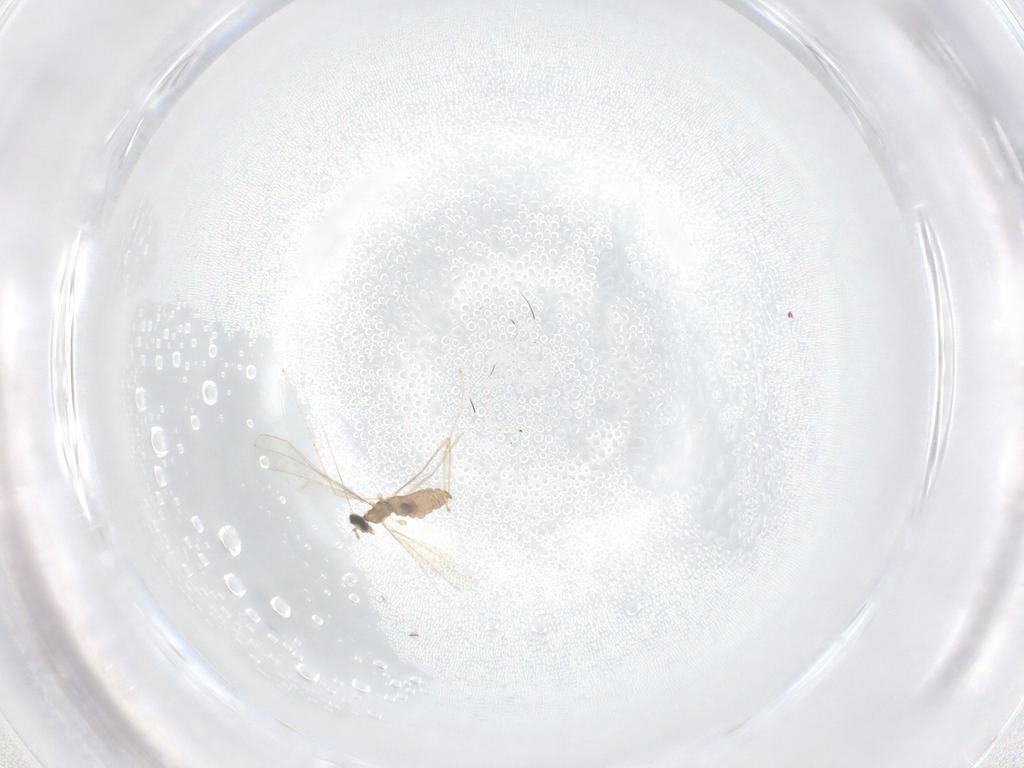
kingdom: Animalia
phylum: Arthropoda
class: Insecta
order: Diptera
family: Cecidomyiidae
